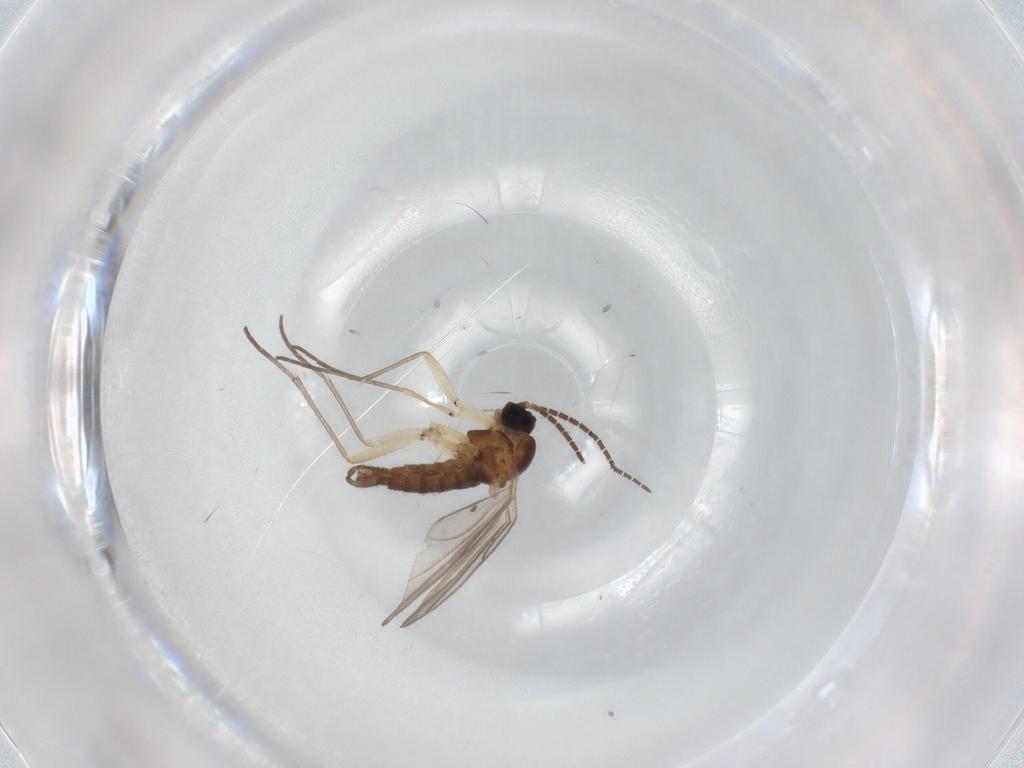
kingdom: Animalia
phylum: Arthropoda
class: Insecta
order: Diptera
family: Sciaridae
